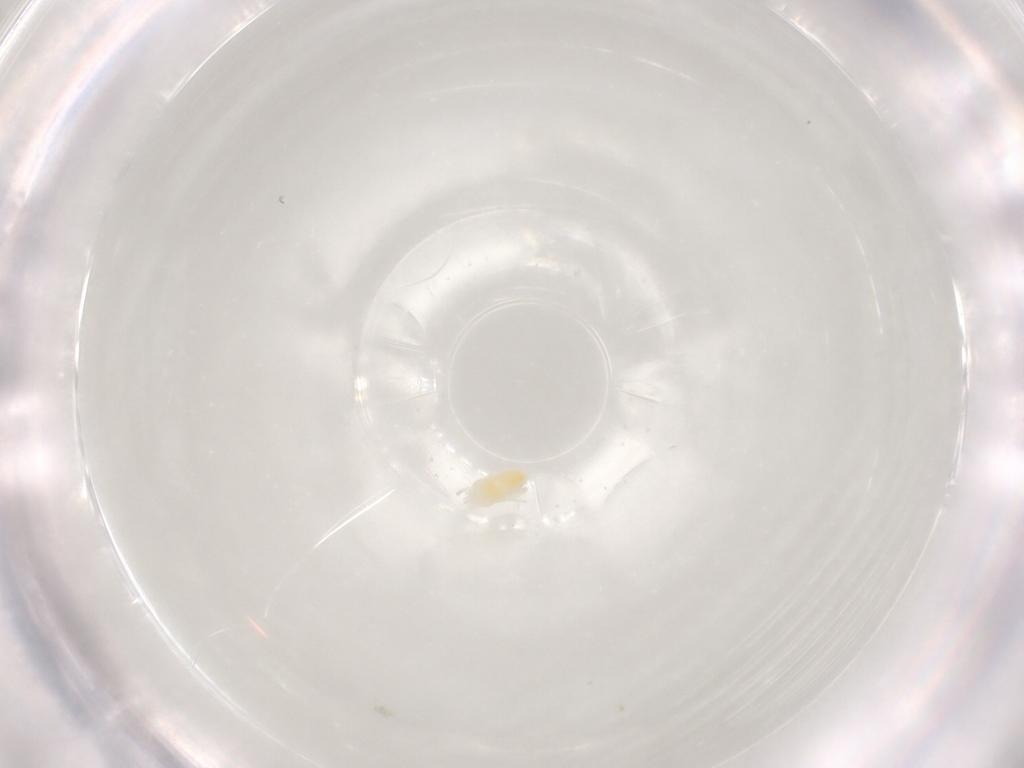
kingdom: Animalia
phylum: Arthropoda
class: Arachnida
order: Trombidiformes
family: Eupodidae
